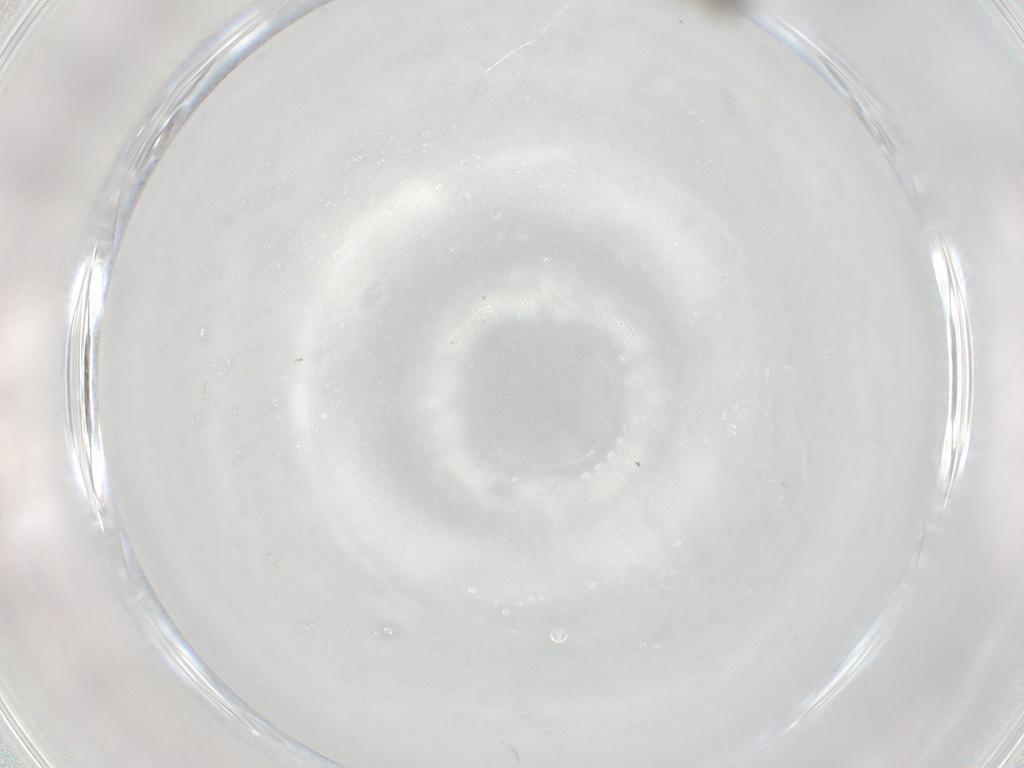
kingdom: Animalia
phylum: Arthropoda
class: Insecta
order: Diptera
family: Cecidomyiidae
